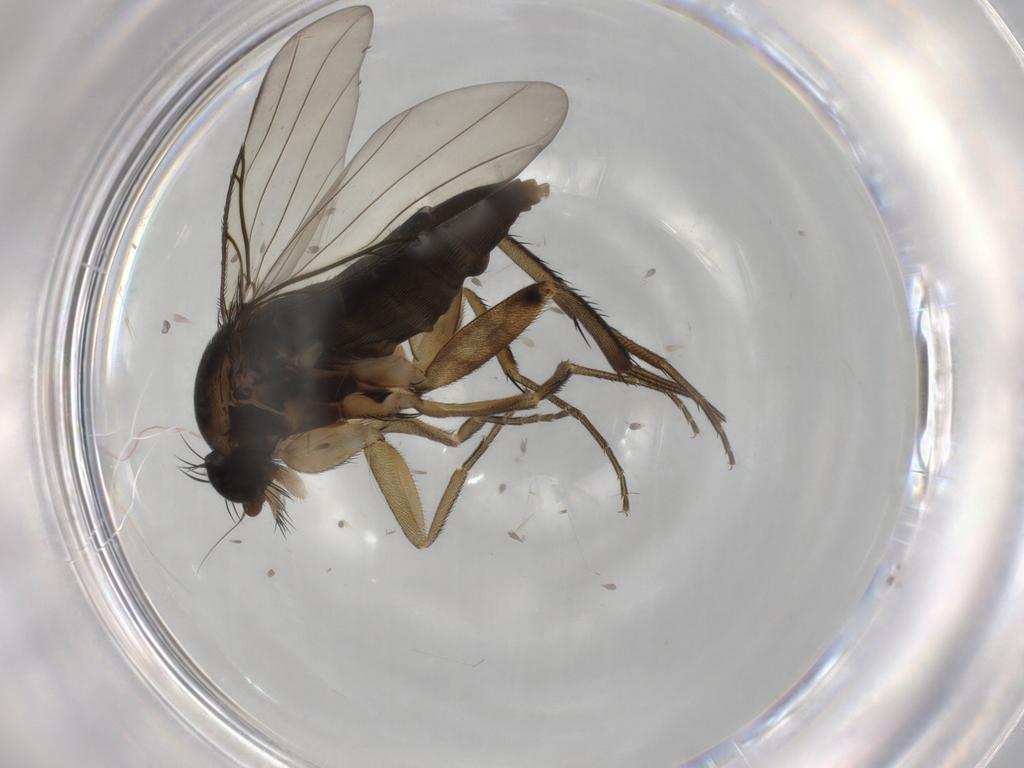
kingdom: Animalia
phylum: Arthropoda
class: Insecta
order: Diptera
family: Phoridae
